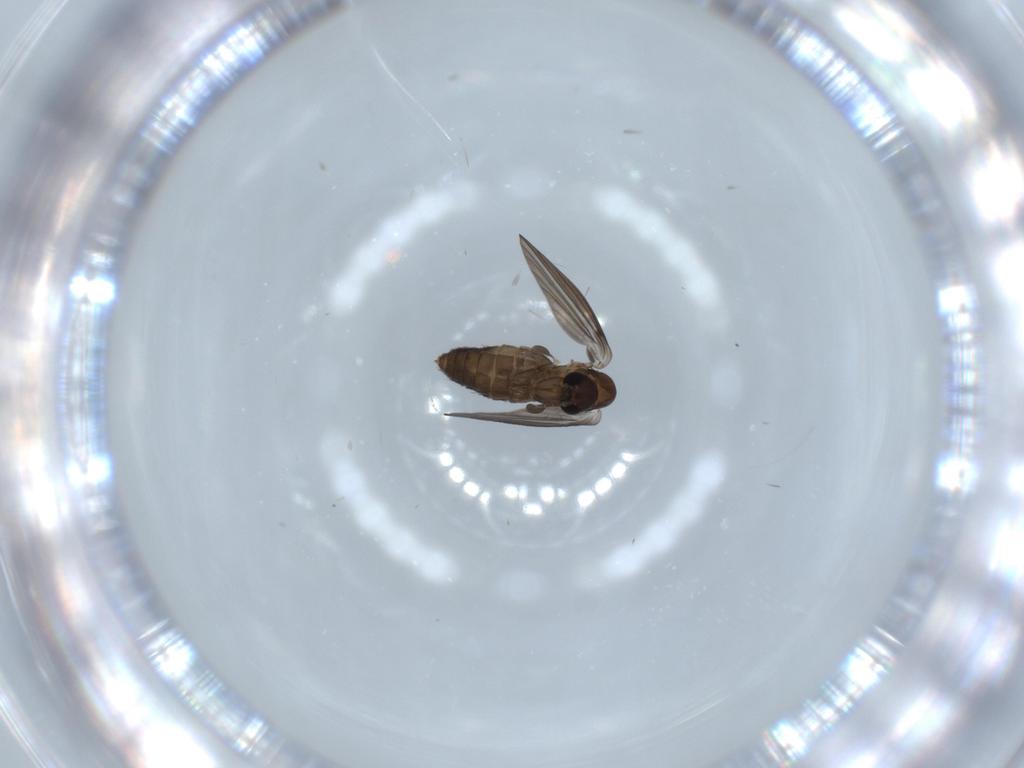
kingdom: Animalia
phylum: Arthropoda
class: Insecta
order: Diptera
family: Psychodidae
